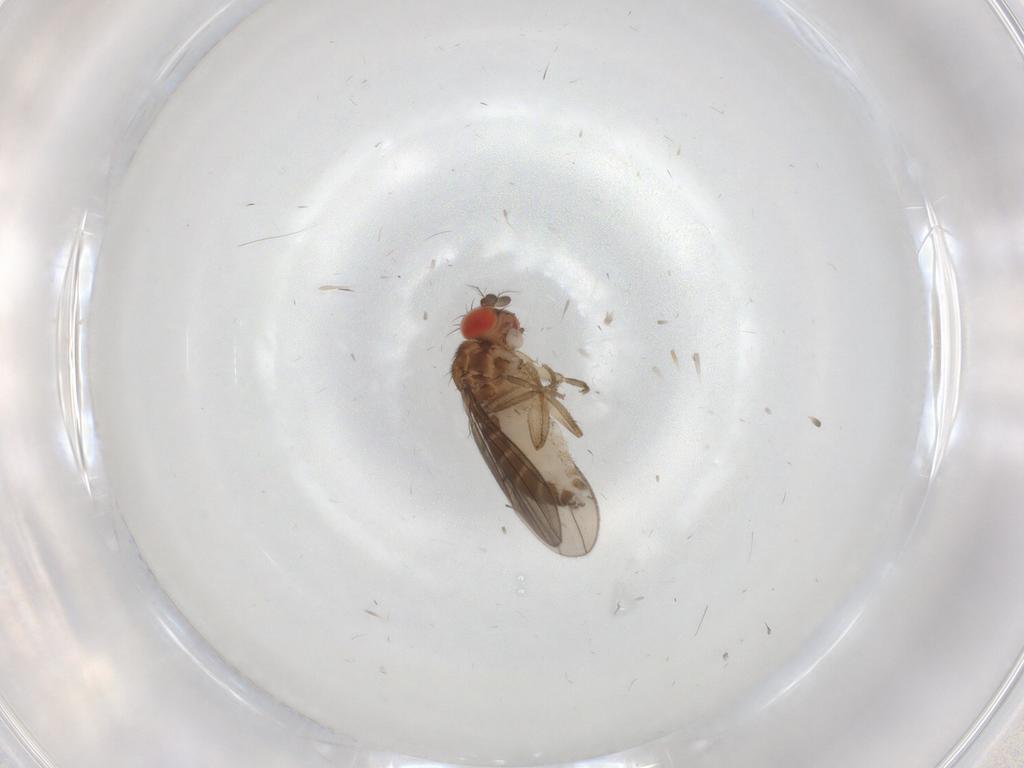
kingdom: Animalia
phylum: Arthropoda
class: Insecta
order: Diptera
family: Drosophilidae
